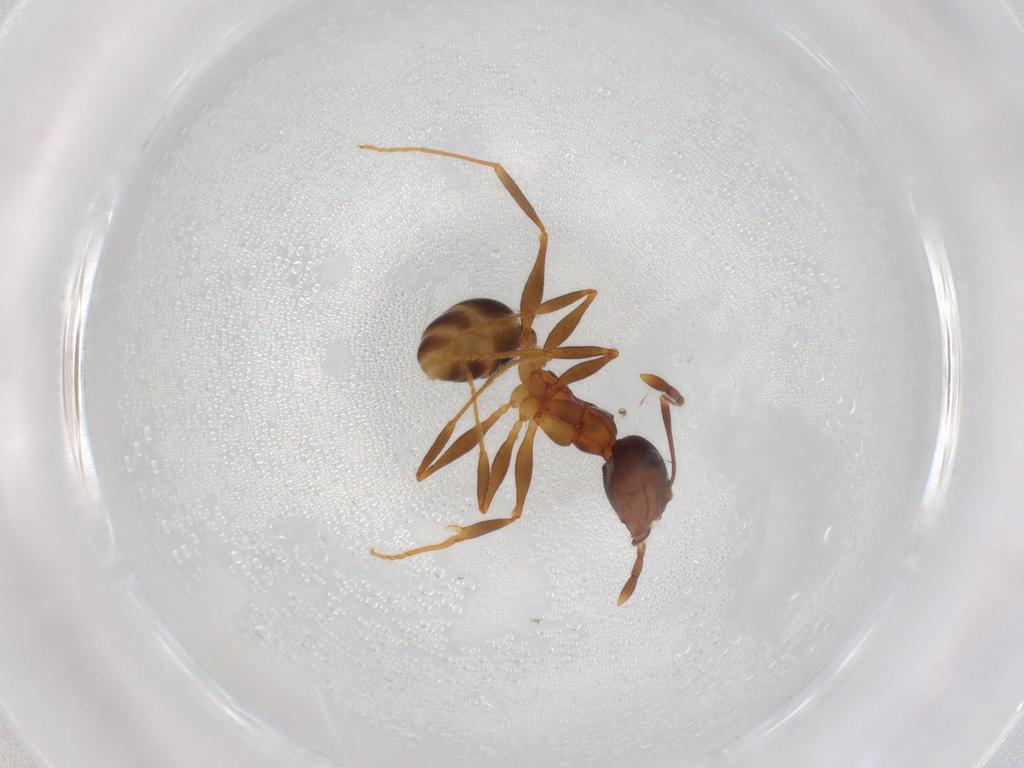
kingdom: Animalia
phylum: Arthropoda
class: Insecta
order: Hymenoptera
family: Formicidae
